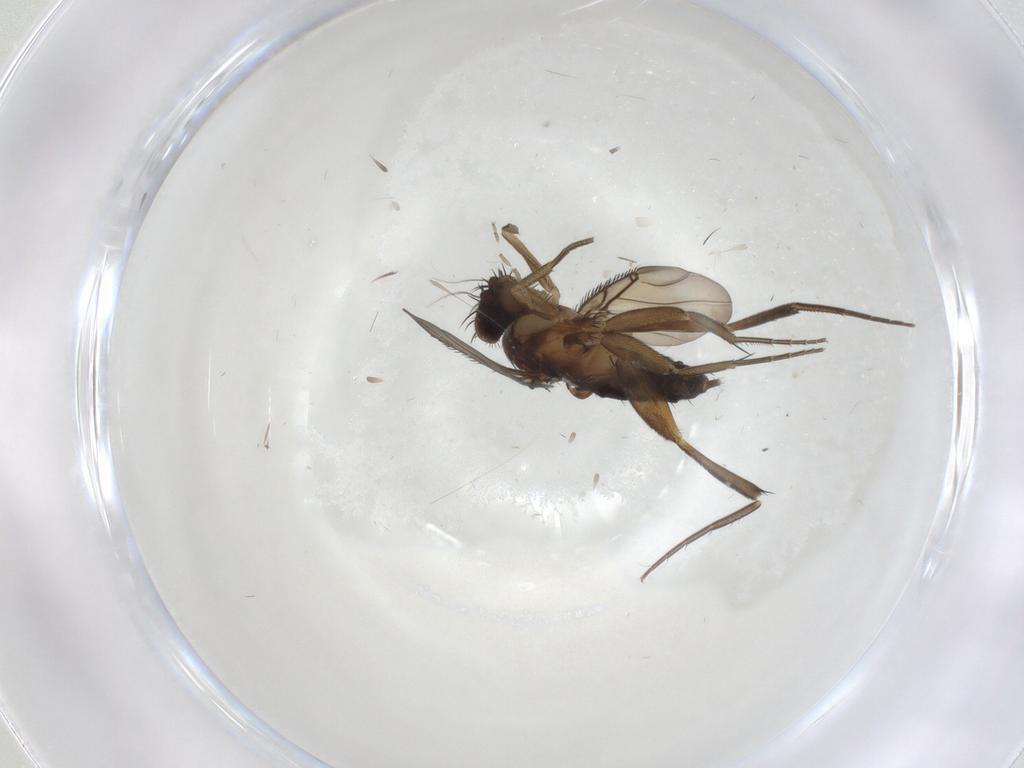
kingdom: Animalia
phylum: Arthropoda
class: Insecta
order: Diptera
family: Phoridae
